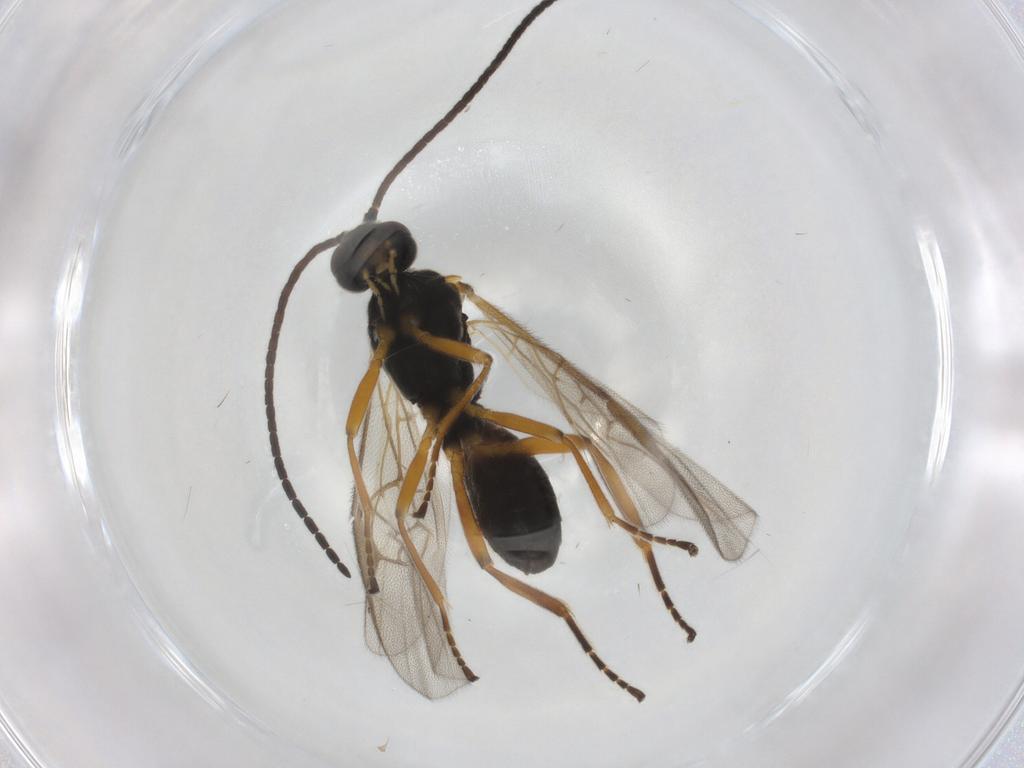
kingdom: Animalia
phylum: Arthropoda
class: Insecta
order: Hymenoptera
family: Braconidae
